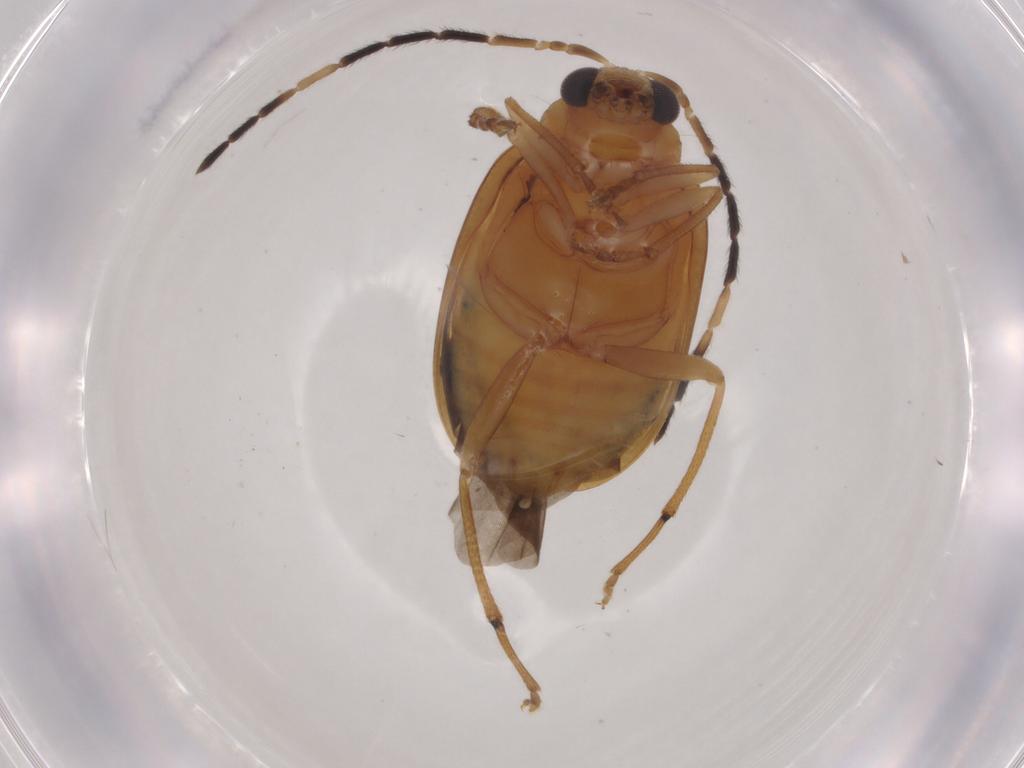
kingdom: Animalia
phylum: Arthropoda
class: Insecta
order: Coleoptera
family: Chrysomelidae
